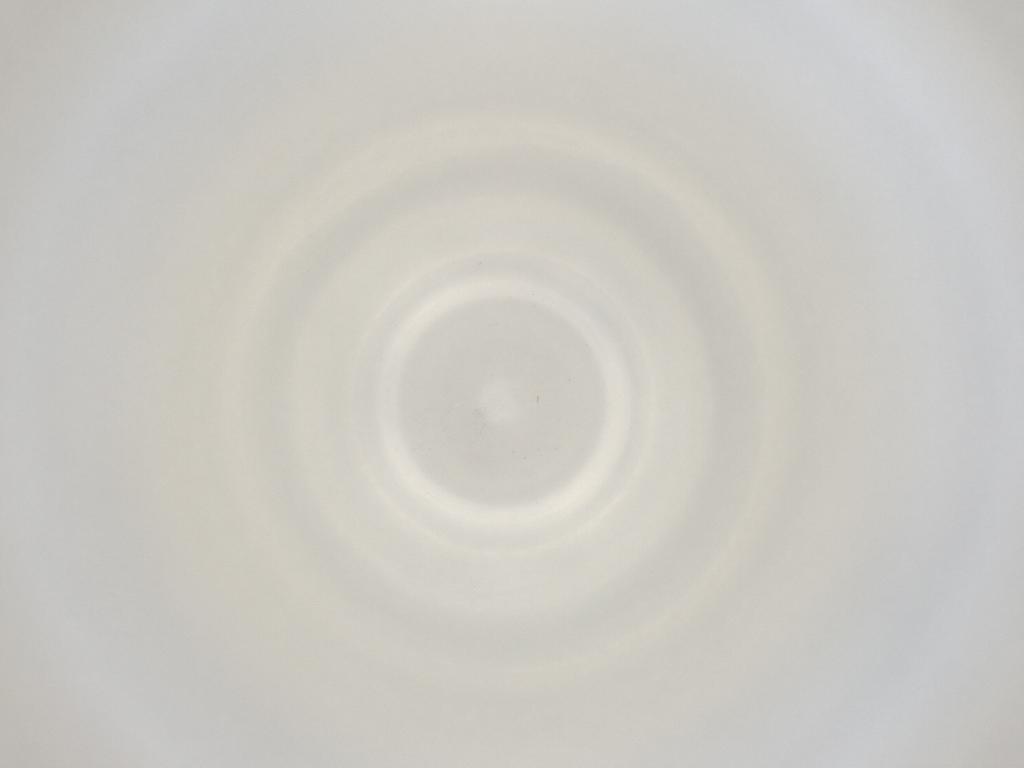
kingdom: Animalia
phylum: Arthropoda
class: Insecta
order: Diptera
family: Cecidomyiidae
